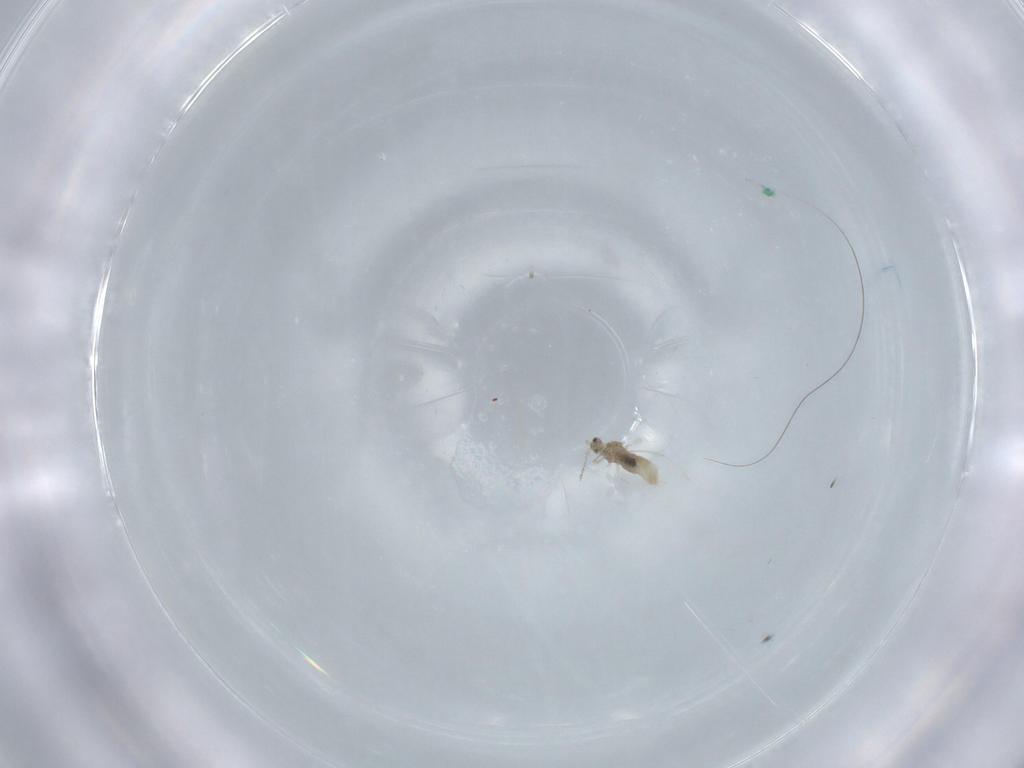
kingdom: Animalia
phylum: Arthropoda
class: Insecta
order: Diptera
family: Cecidomyiidae
